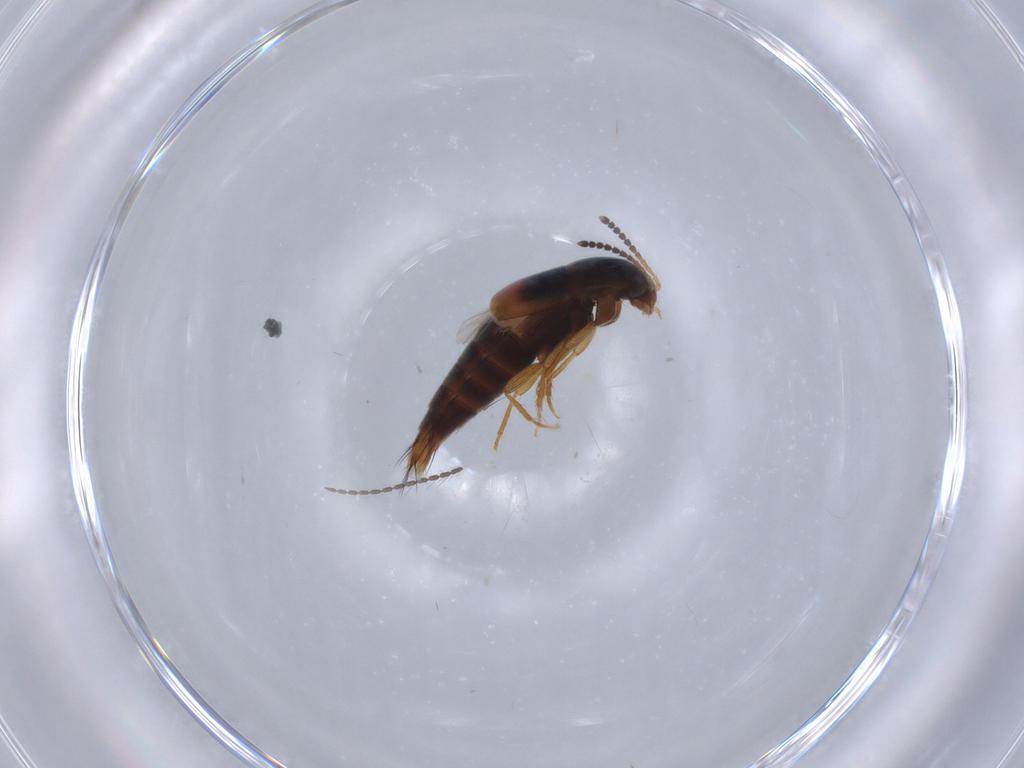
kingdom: Animalia
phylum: Arthropoda
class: Insecta
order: Coleoptera
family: Staphylinidae
